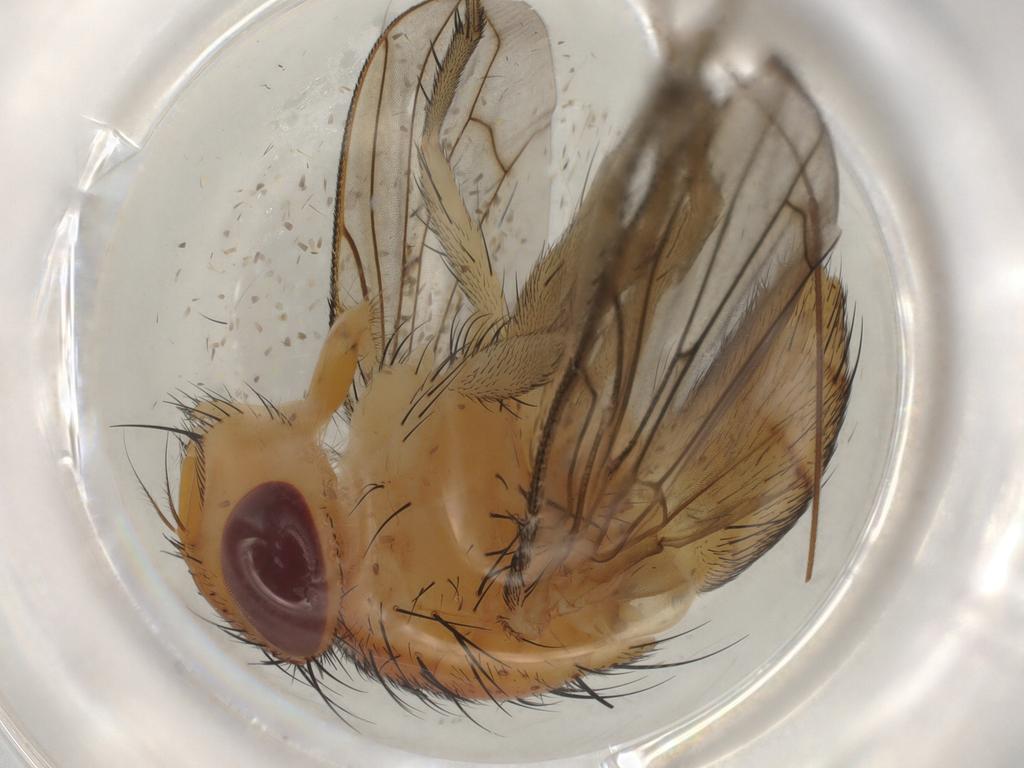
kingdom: Animalia
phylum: Arthropoda
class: Insecta
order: Diptera
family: Calliphoridae
